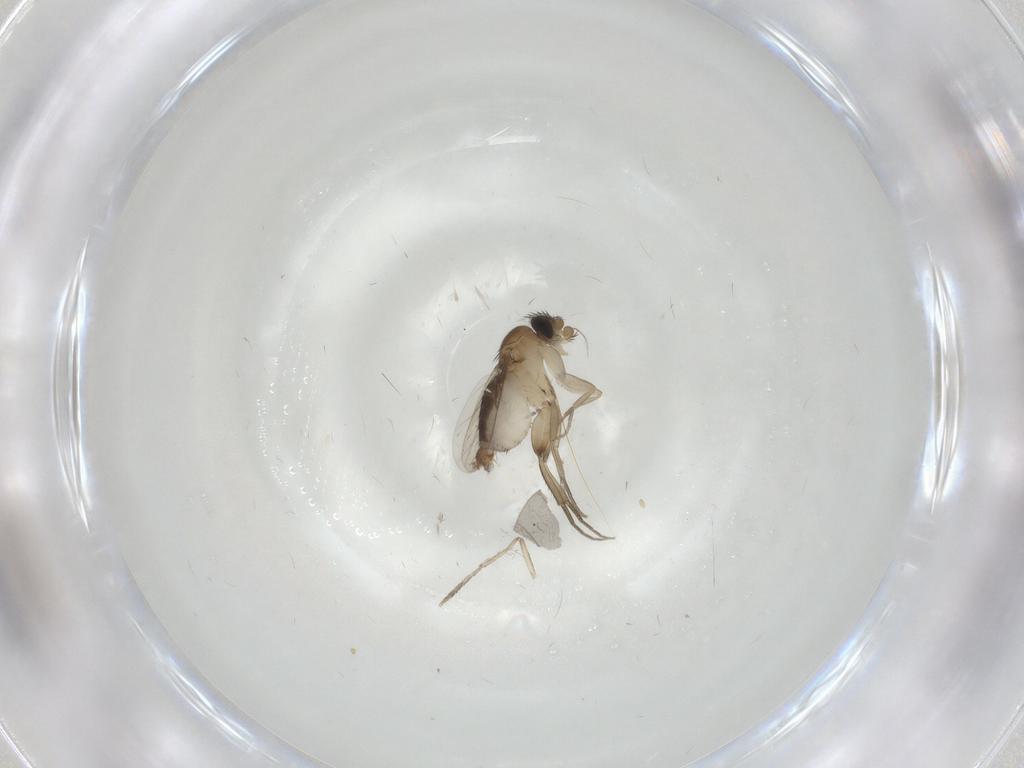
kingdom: Animalia
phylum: Arthropoda
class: Insecta
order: Diptera
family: Phoridae
